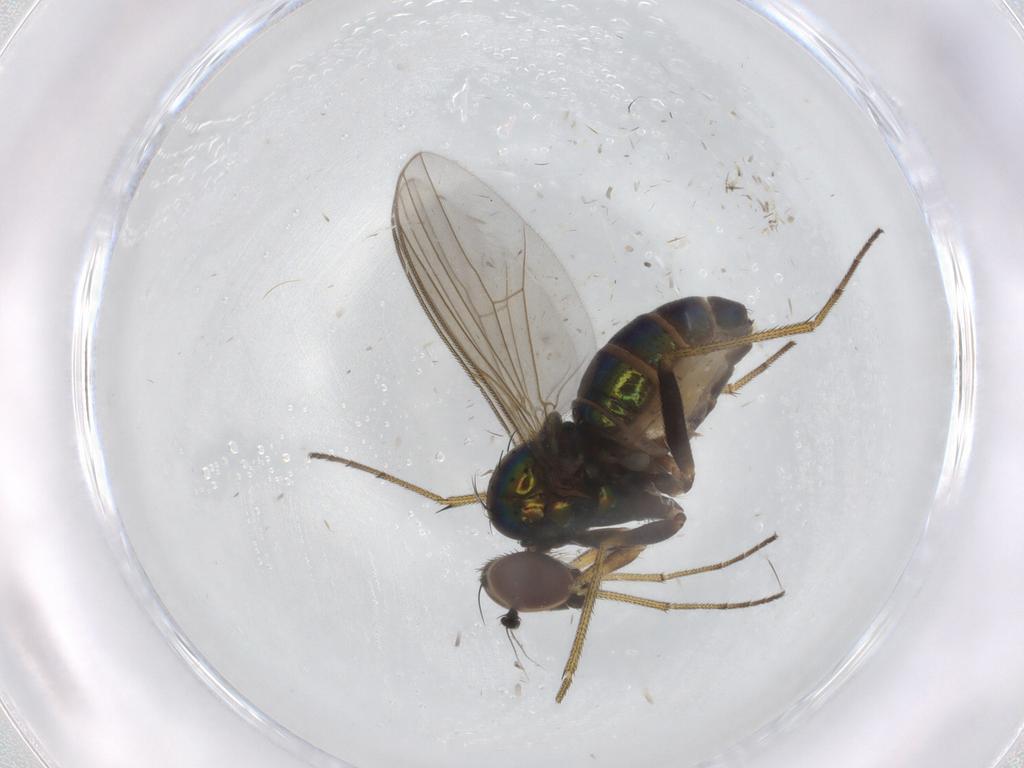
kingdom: Animalia
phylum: Arthropoda
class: Insecta
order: Diptera
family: Dolichopodidae
